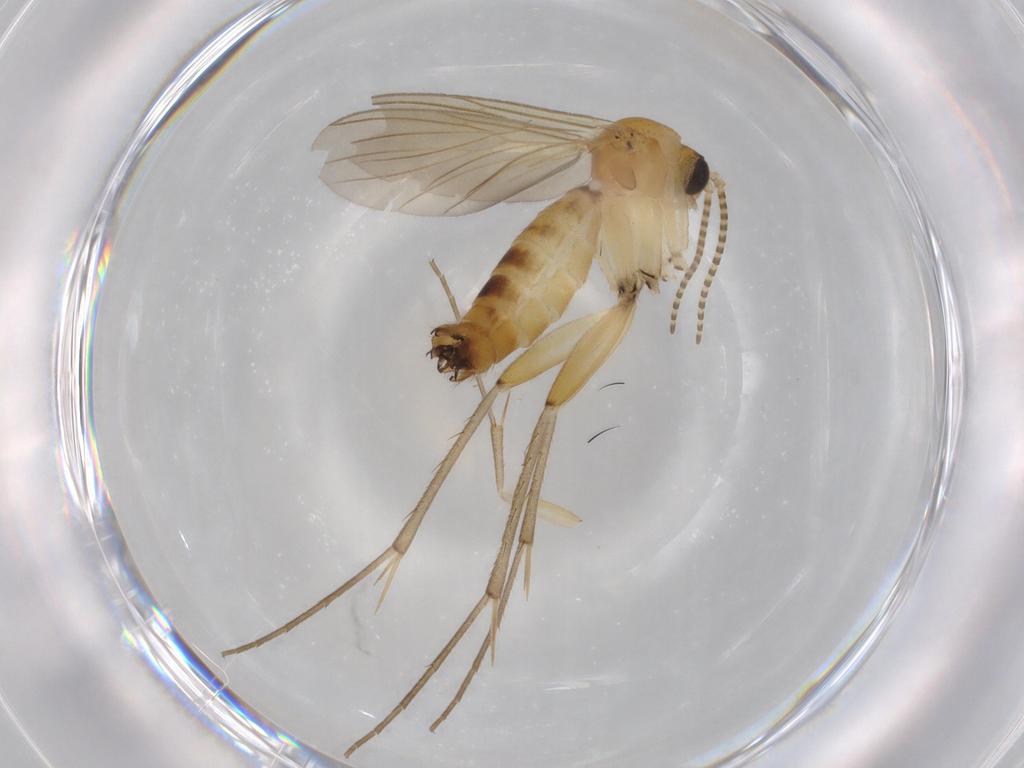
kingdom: Animalia
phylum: Arthropoda
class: Insecta
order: Diptera
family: Mycetophilidae
